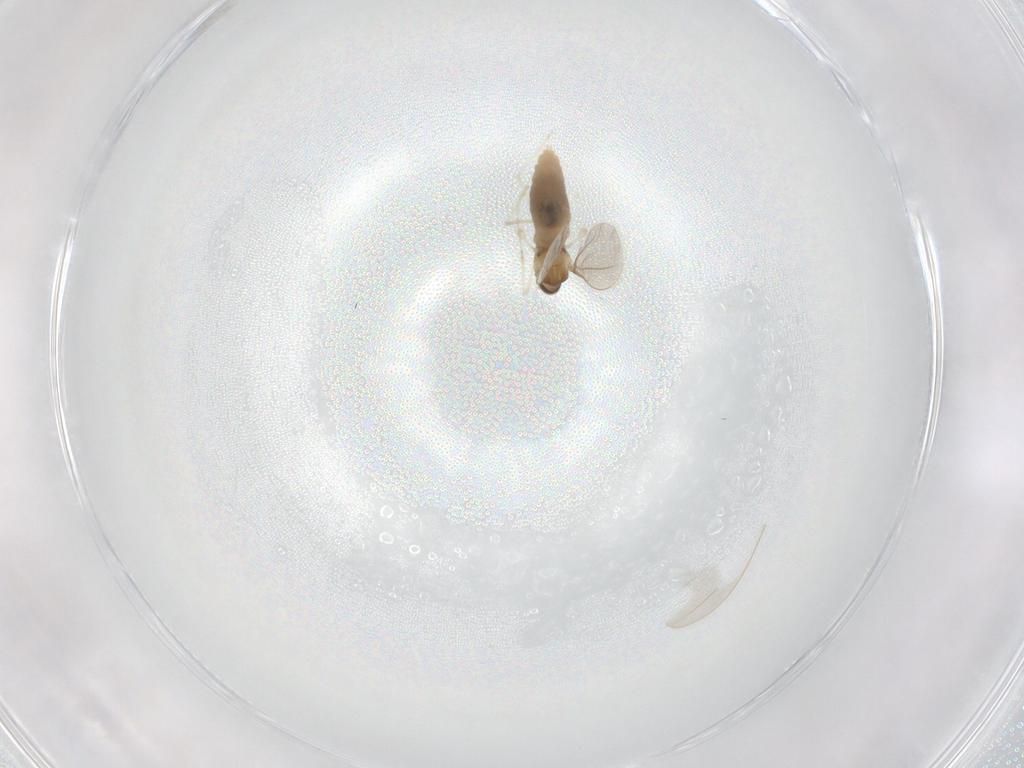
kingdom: Animalia
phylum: Arthropoda
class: Insecta
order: Diptera
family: Cecidomyiidae
